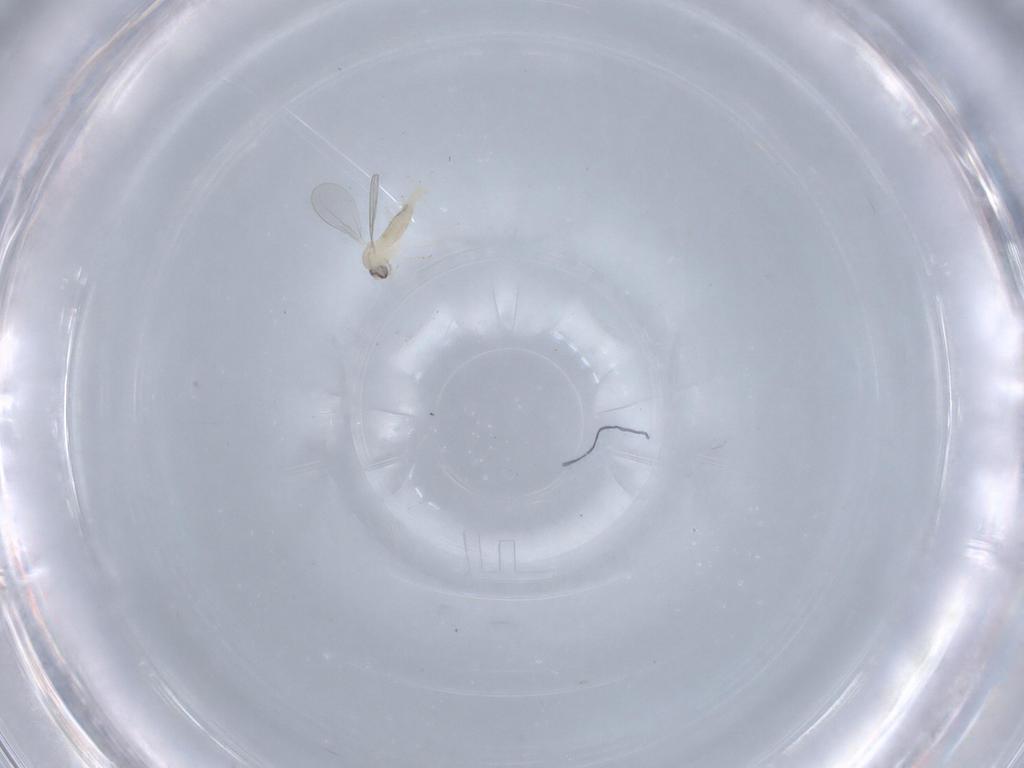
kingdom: Animalia
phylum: Arthropoda
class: Insecta
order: Diptera
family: Cecidomyiidae
